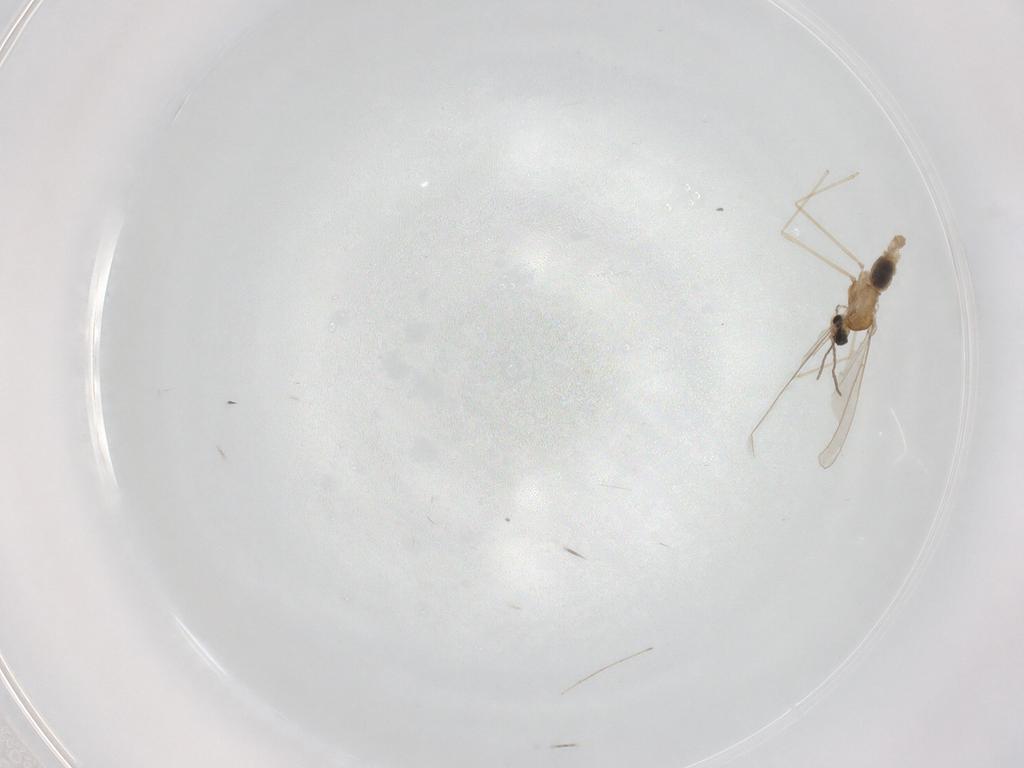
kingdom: Animalia
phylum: Arthropoda
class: Insecta
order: Diptera
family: Cecidomyiidae
